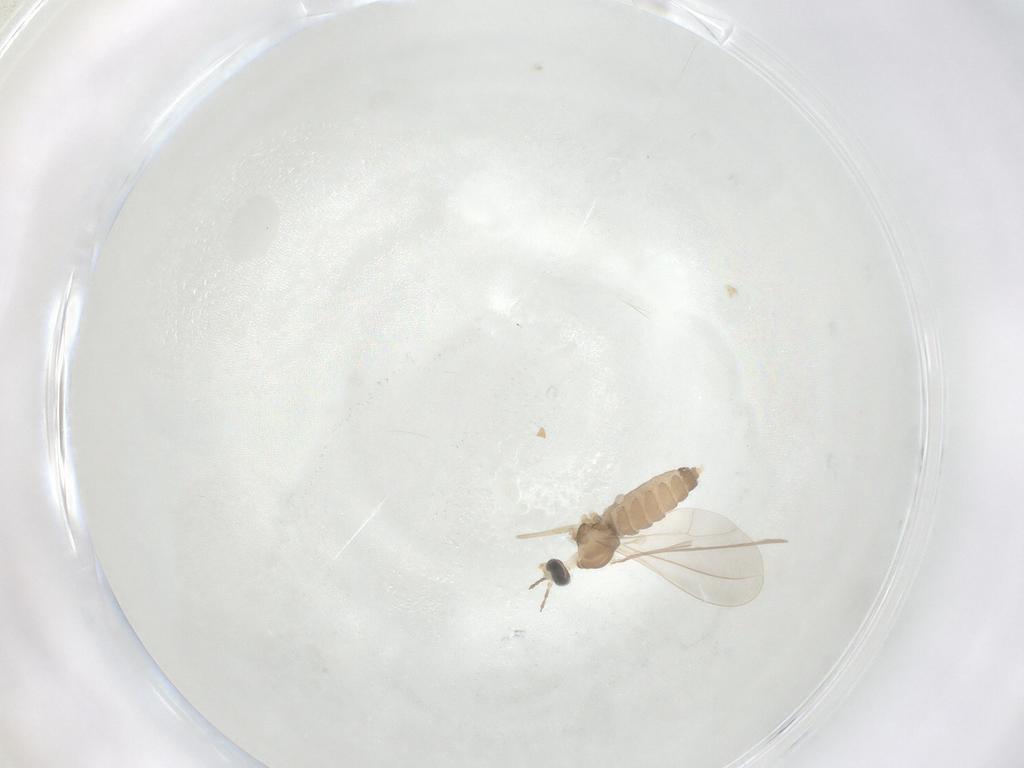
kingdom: Animalia
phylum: Arthropoda
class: Insecta
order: Diptera
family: Cecidomyiidae
